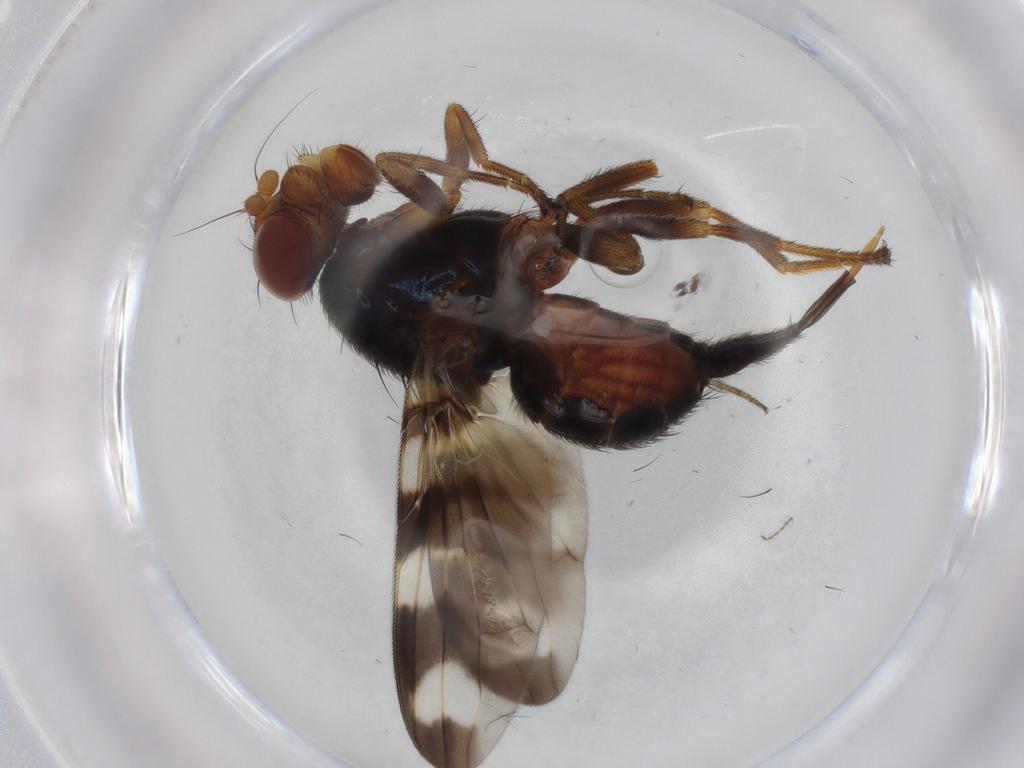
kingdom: Animalia
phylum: Arthropoda
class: Insecta
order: Diptera
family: Ulidiidae
